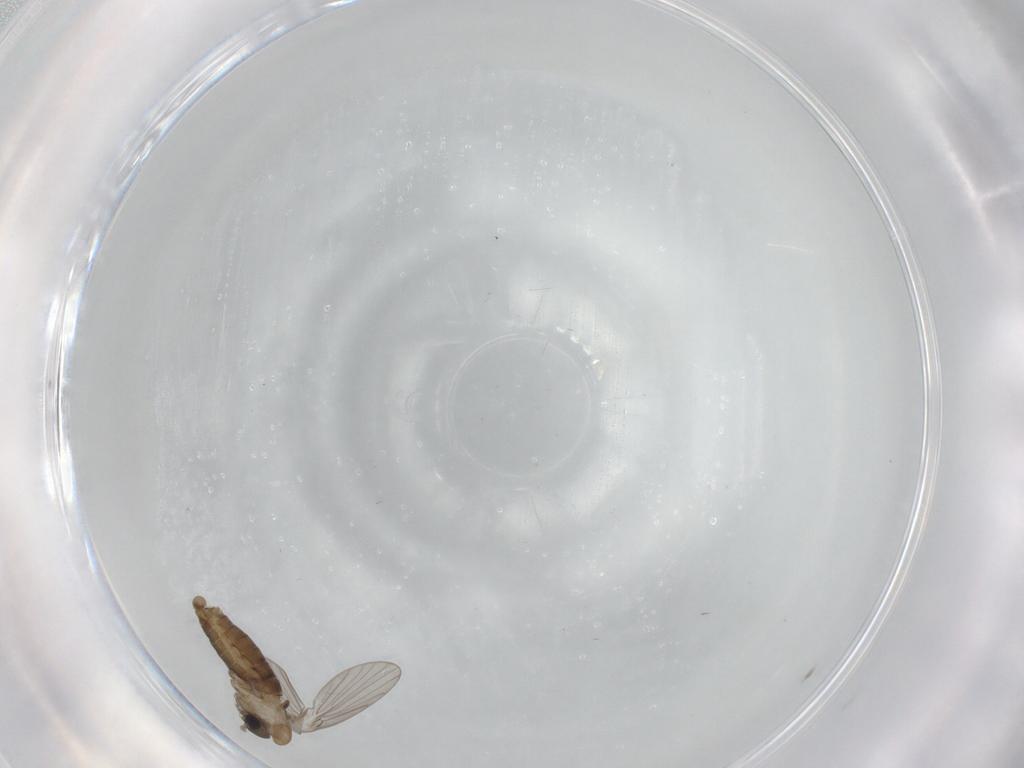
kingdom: Animalia
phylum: Arthropoda
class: Insecta
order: Diptera
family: Psychodidae
